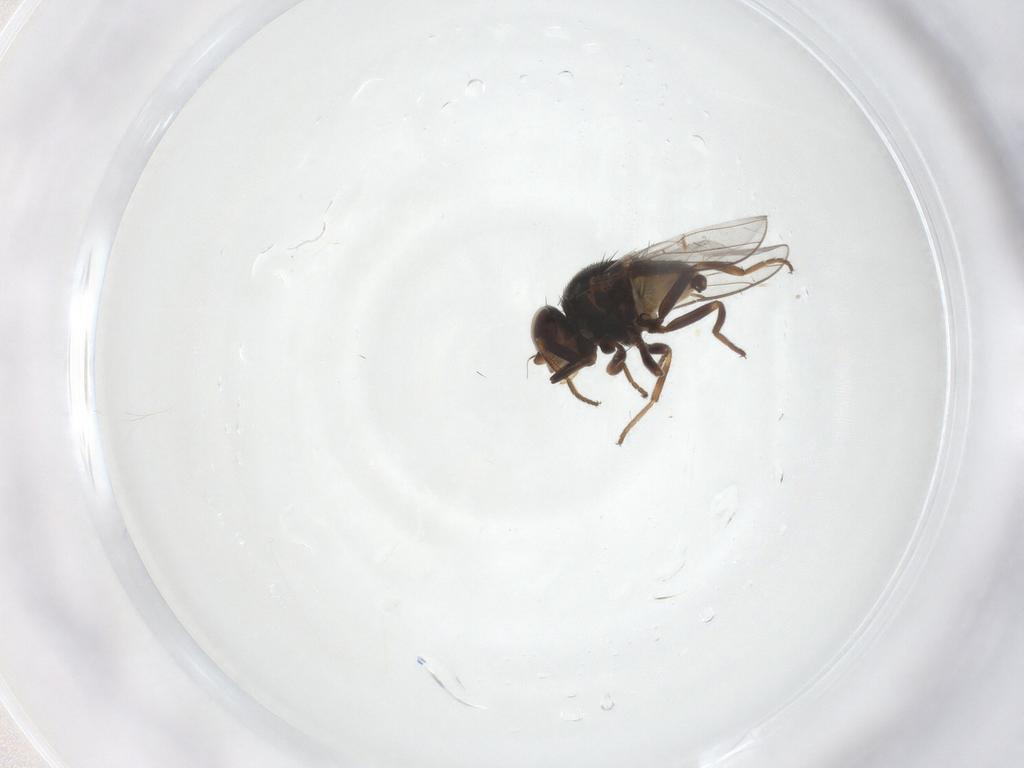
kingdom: Animalia
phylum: Arthropoda
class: Insecta
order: Diptera
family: Chloropidae
